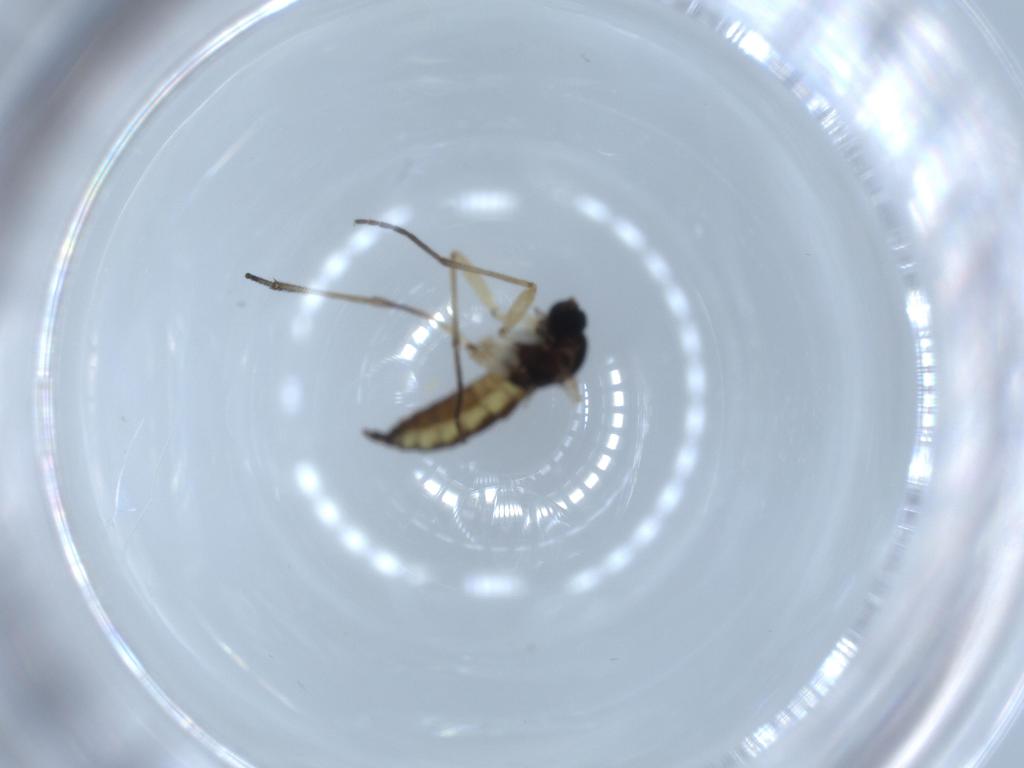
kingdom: Animalia
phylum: Arthropoda
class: Insecta
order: Diptera
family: Sciaridae
